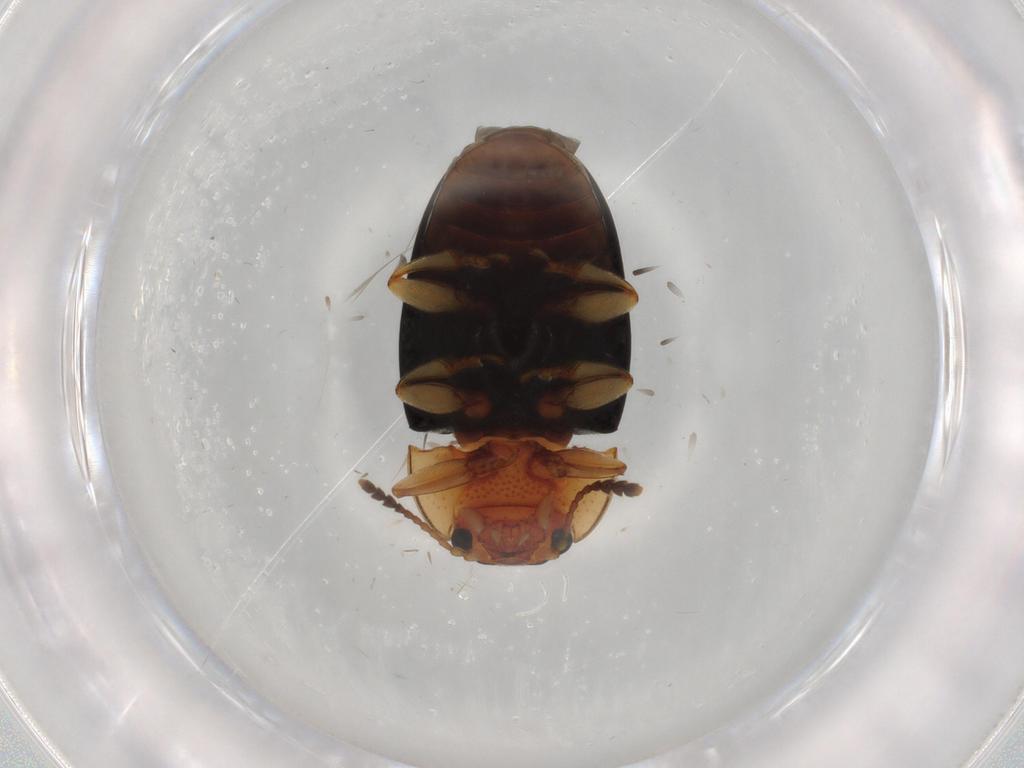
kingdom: Animalia
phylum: Arthropoda
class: Insecta
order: Coleoptera
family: Erotylidae
